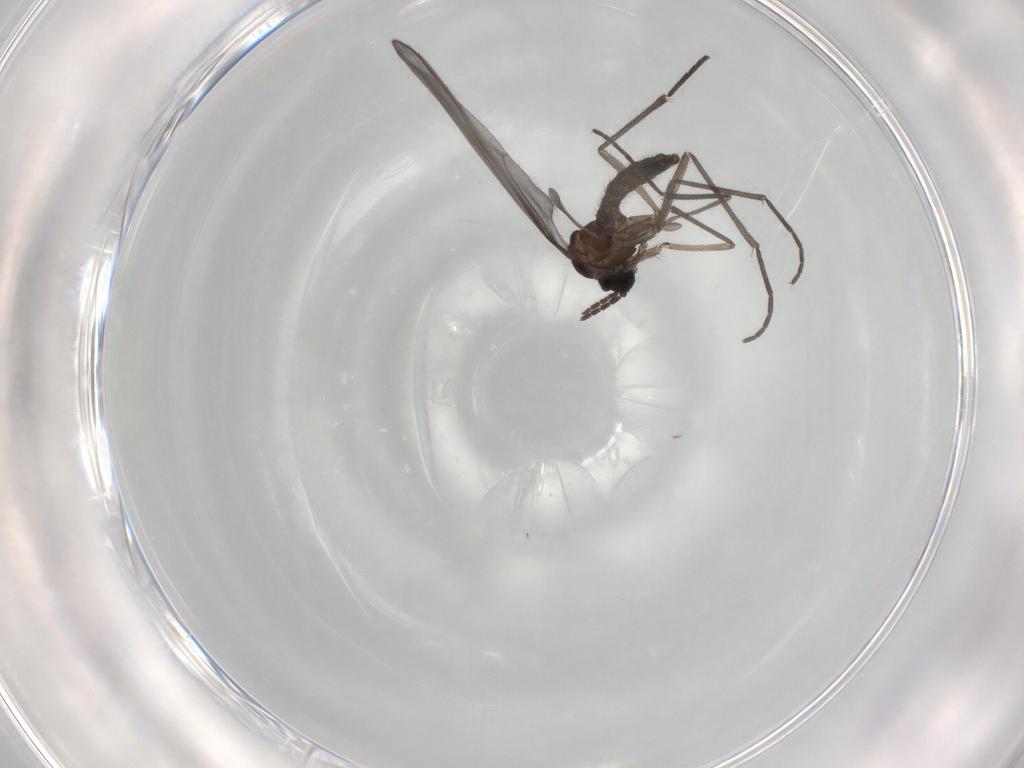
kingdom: Animalia
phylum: Arthropoda
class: Insecta
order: Diptera
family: Sciaridae
